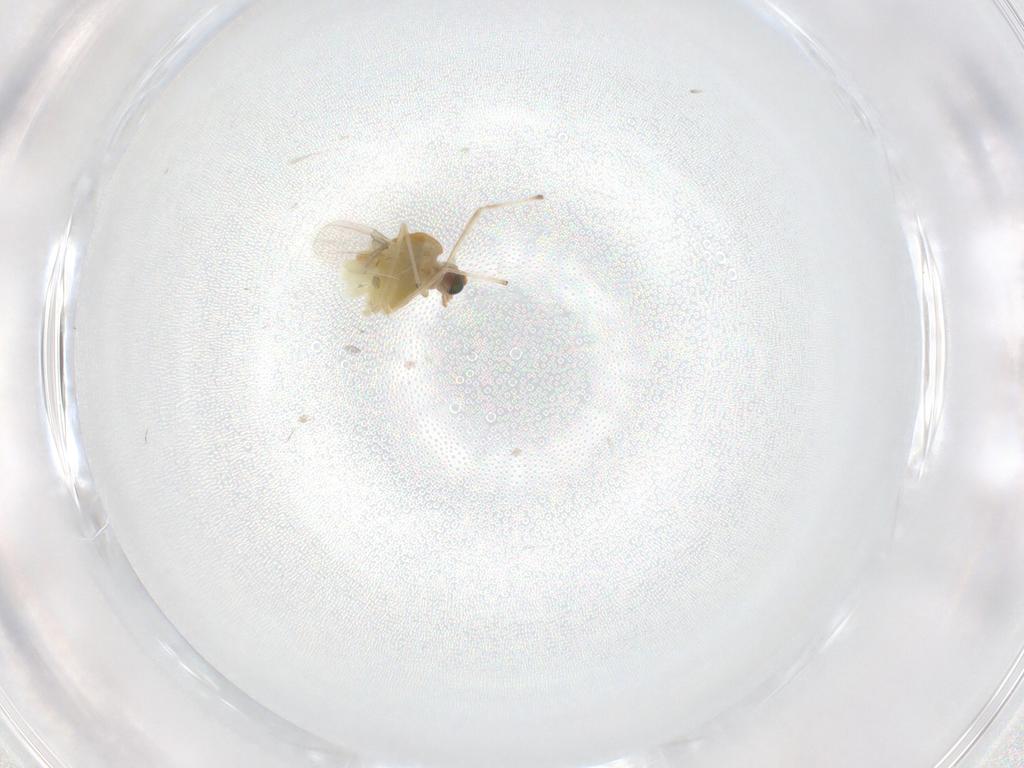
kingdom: Animalia
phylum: Arthropoda
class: Insecta
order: Diptera
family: Chironomidae
